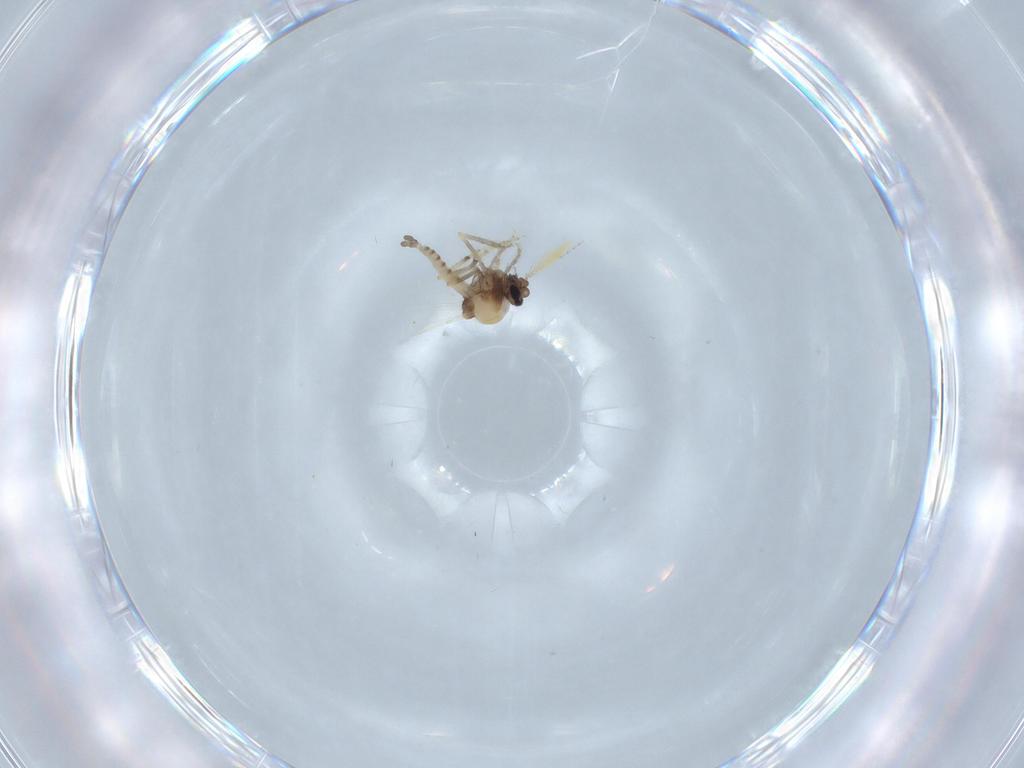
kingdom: Animalia
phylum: Arthropoda
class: Insecta
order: Diptera
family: Ceratopogonidae
